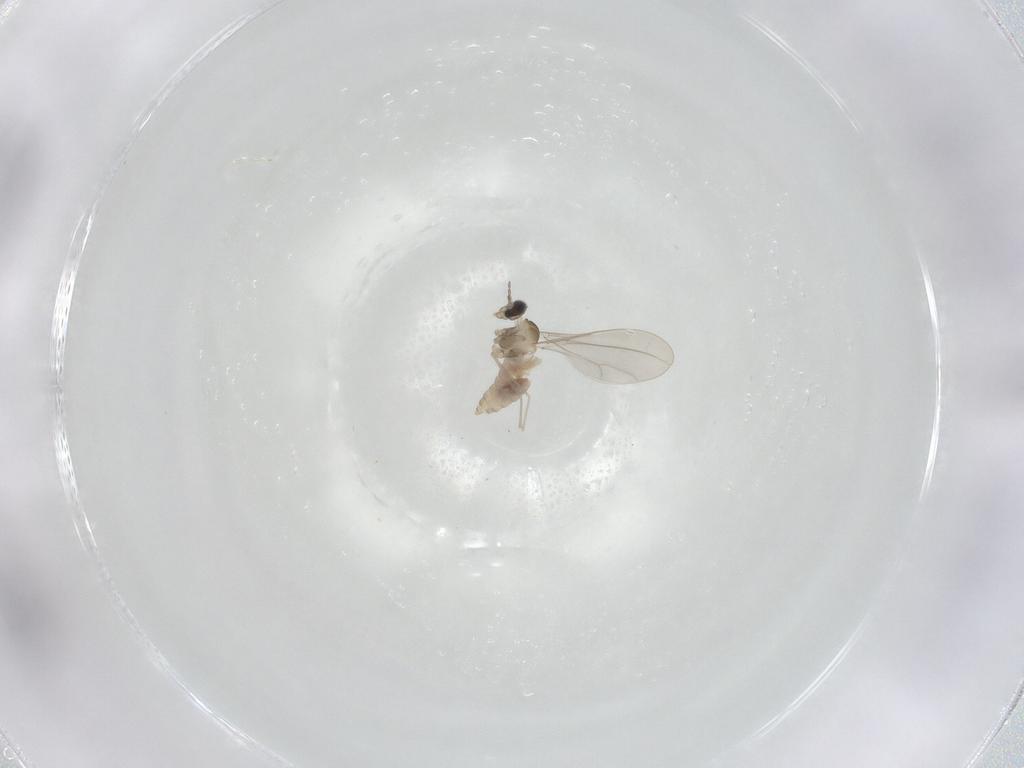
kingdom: Animalia
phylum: Arthropoda
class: Insecta
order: Diptera
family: Cecidomyiidae
